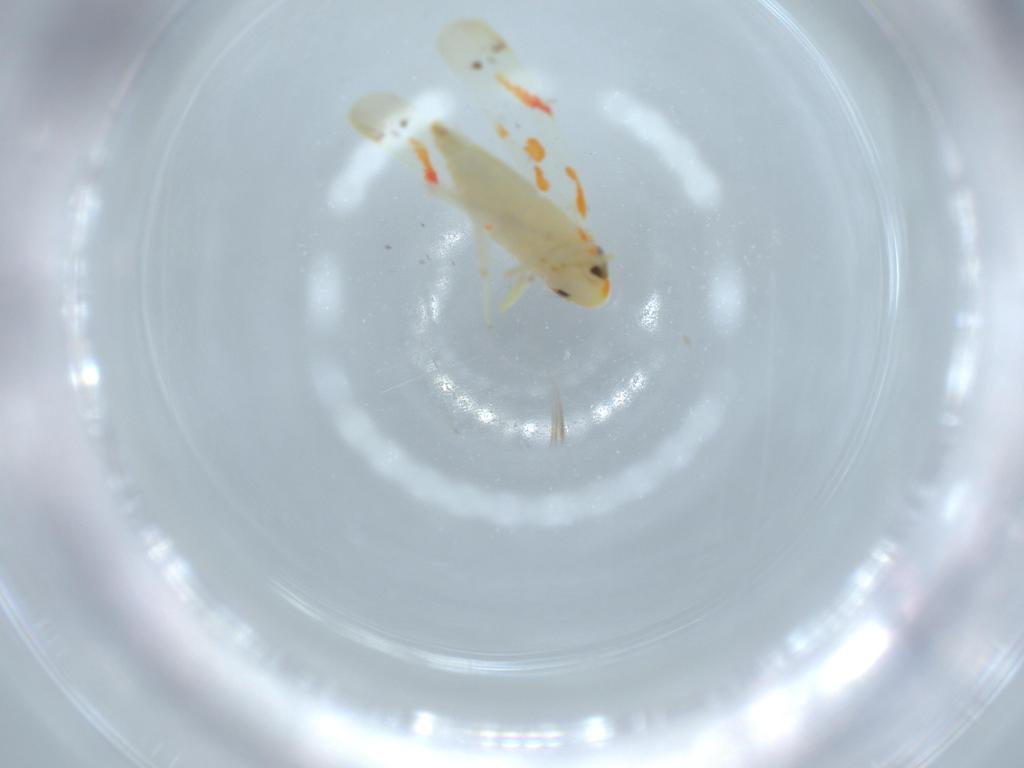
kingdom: Animalia
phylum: Arthropoda
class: Insecta
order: Hemiptera
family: Cicadellidae
